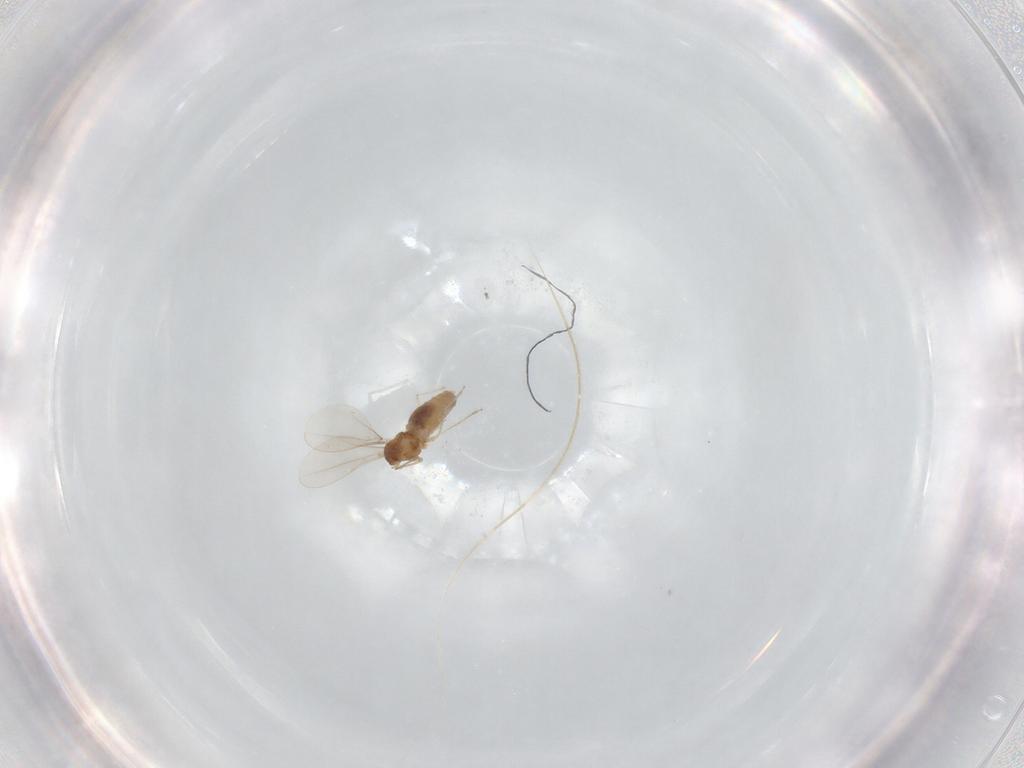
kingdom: Animalia
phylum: Arthropoda
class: Insecta
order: Diptera
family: Cecidomyiidae
